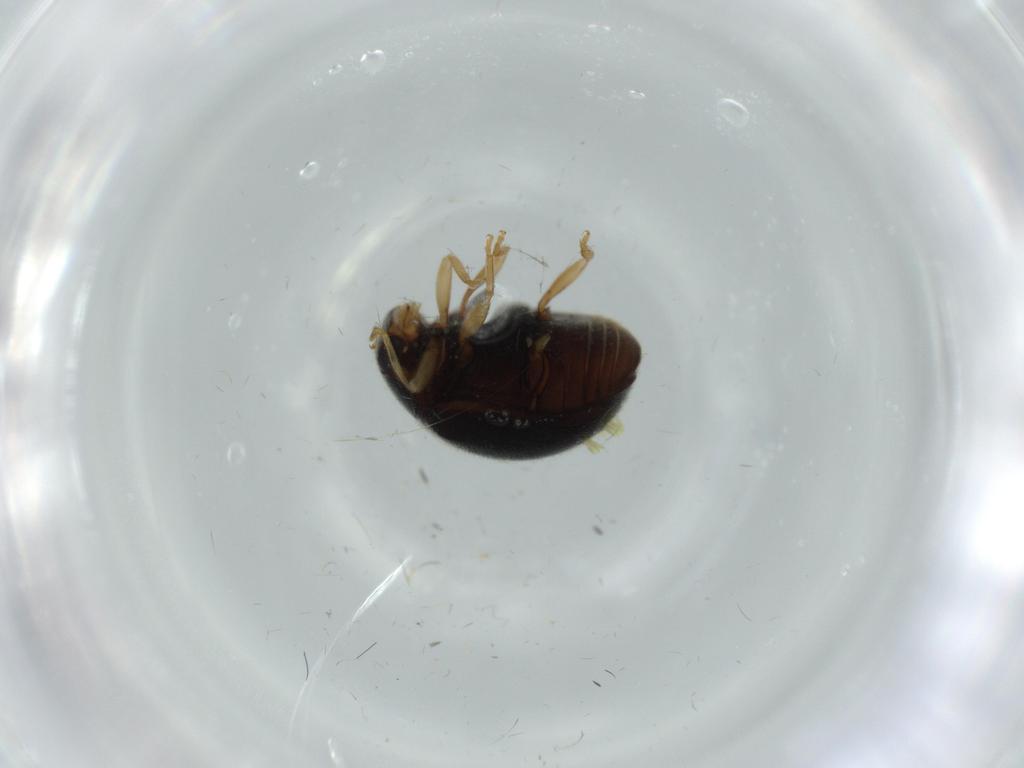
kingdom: Animalia
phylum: Arthropoda
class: Insecta
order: Coleoptera
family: Coccinellidae
